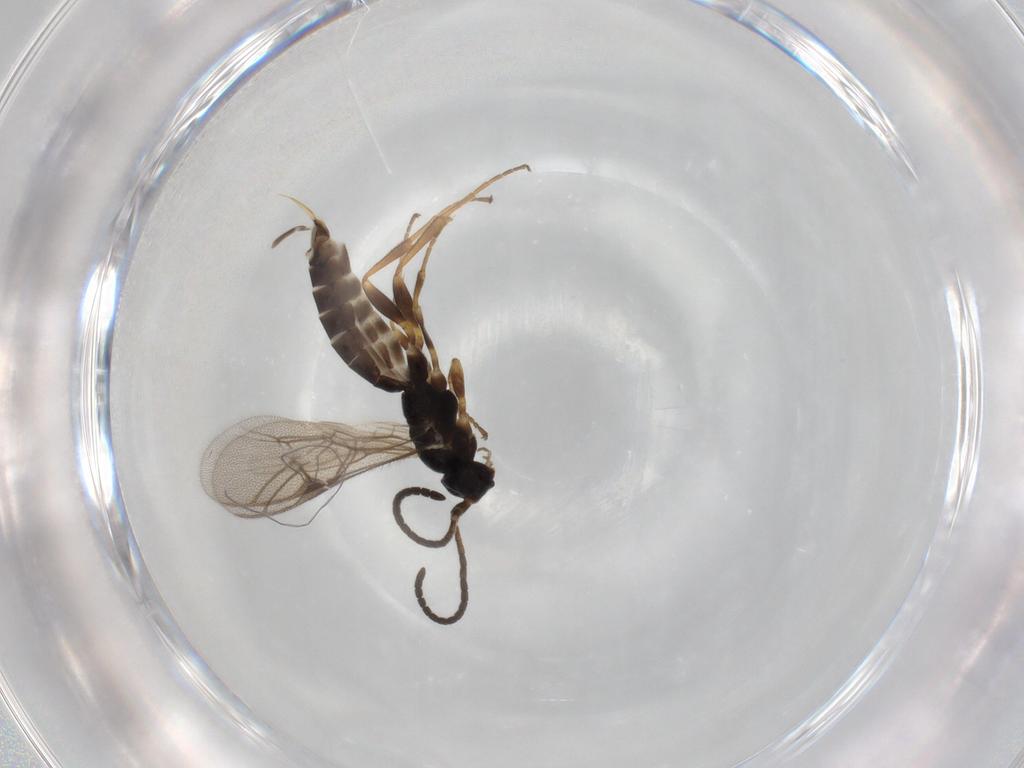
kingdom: Animalia
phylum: Arthropoda
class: Insecta
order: Hymenoptera
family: Ichneumonidae
